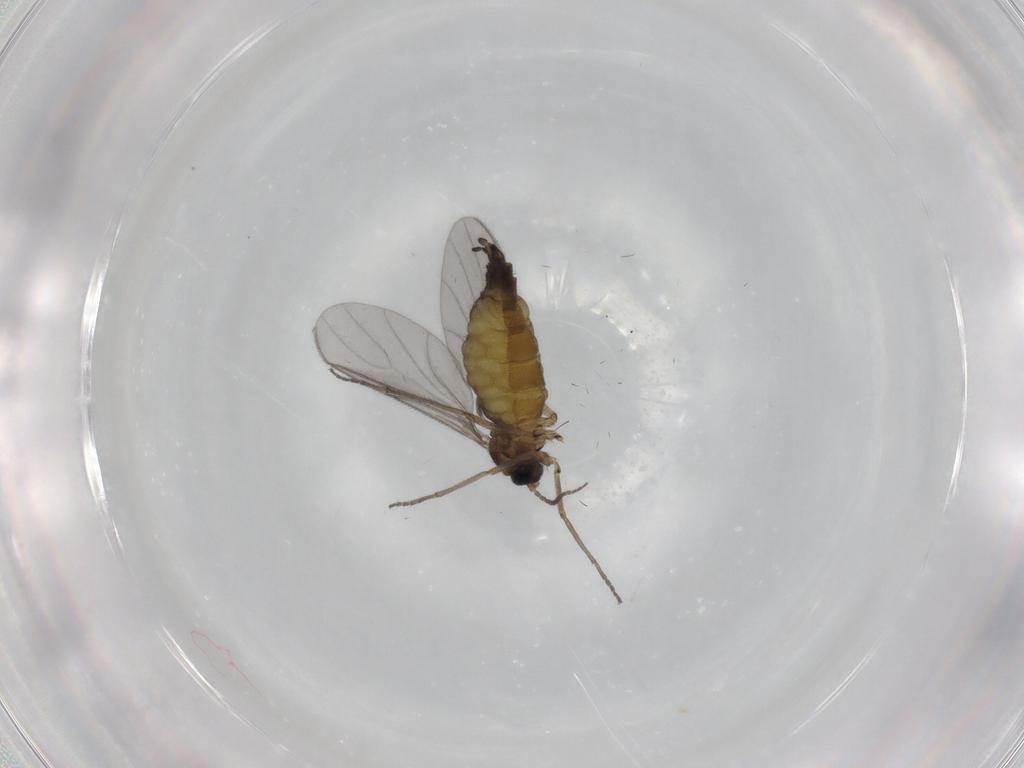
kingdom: Animalia
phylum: Arthropoda
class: Insecta
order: Diptera
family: Sciaridae
